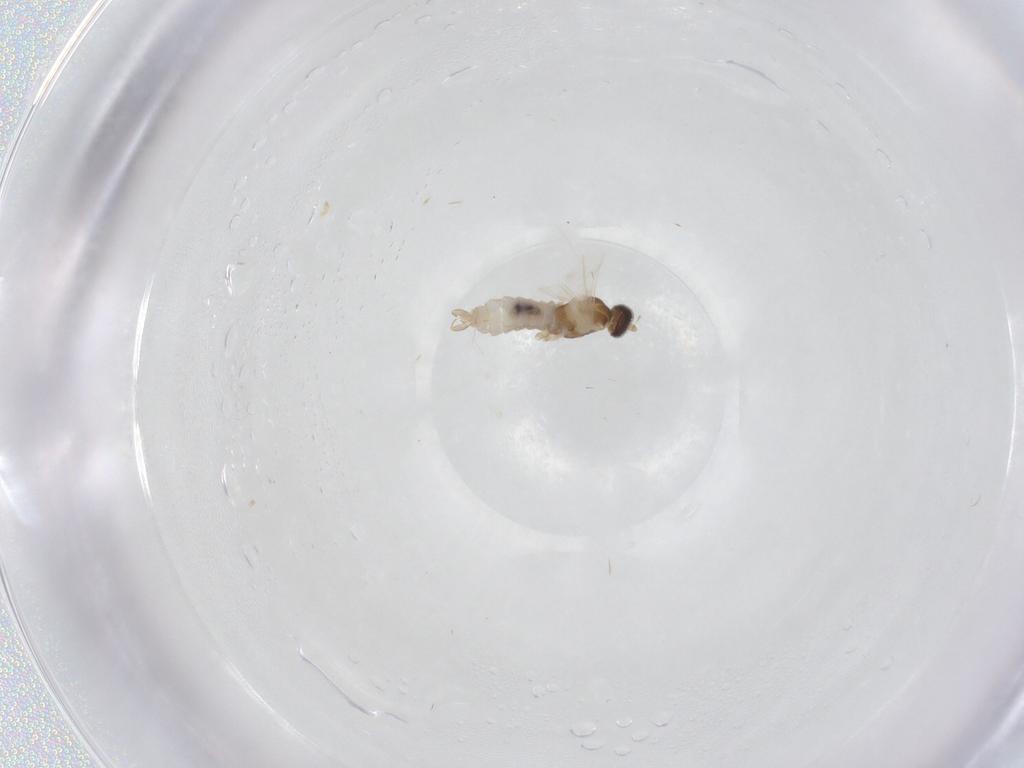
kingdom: Animalia
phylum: Arthropoda
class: Insecta
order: Diptera
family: Cecidomyiidae
